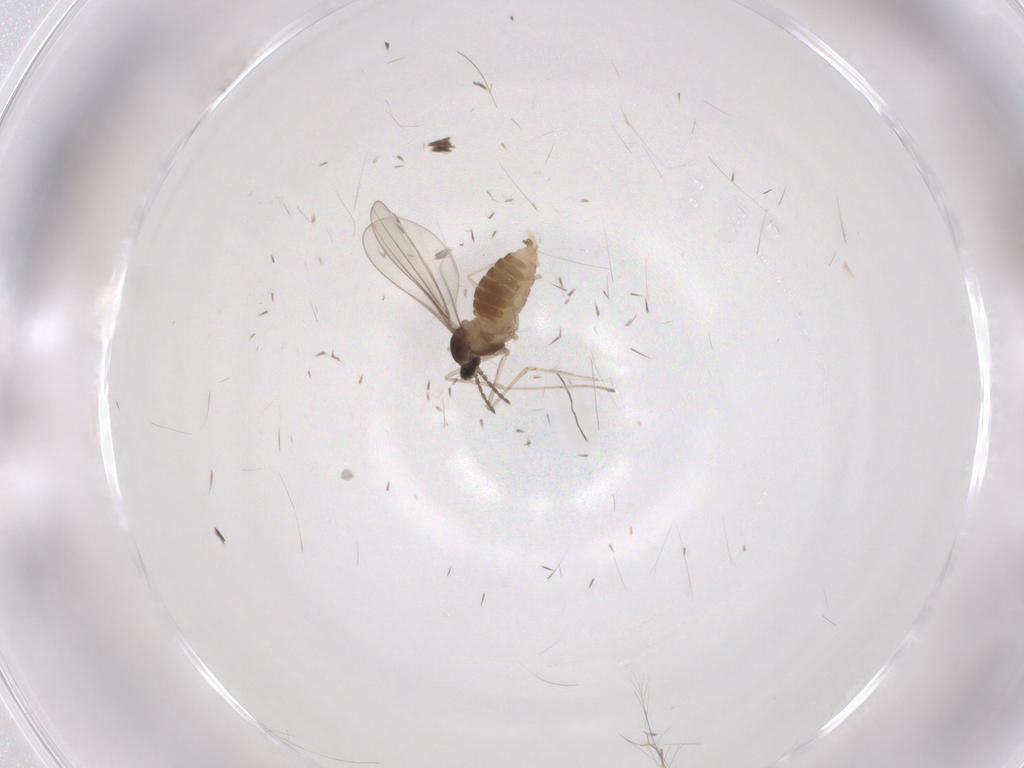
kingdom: Animalia
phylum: Arthropoda
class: Insecta
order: Diptera
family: Cecidomyiidae
